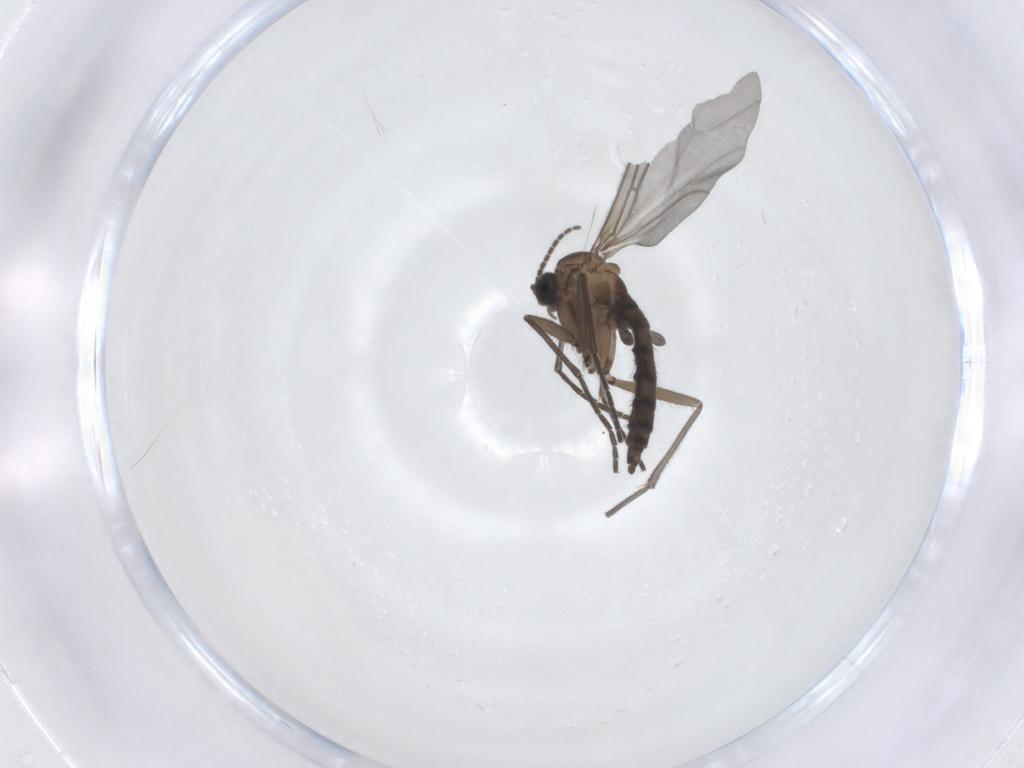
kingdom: Animalia
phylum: Arthropoda
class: Insecta
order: Diptera
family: Sciaridae
